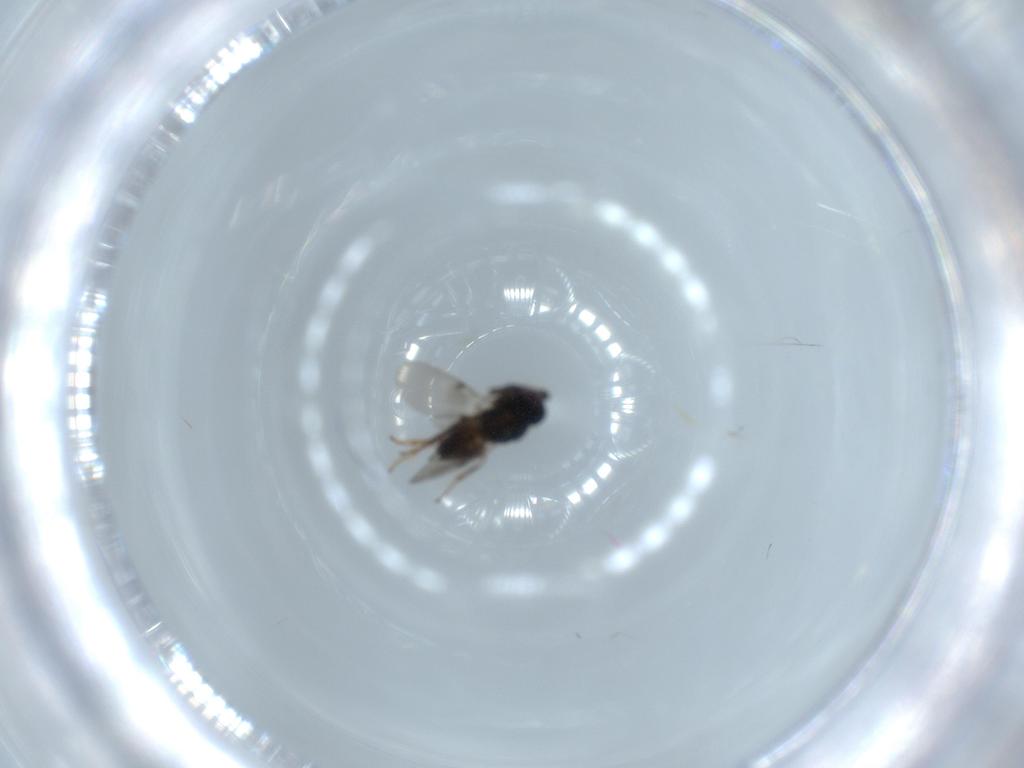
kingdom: Animalia
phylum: Arthropoda
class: Insecta
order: Hymenoptera
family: Encyrtidae
